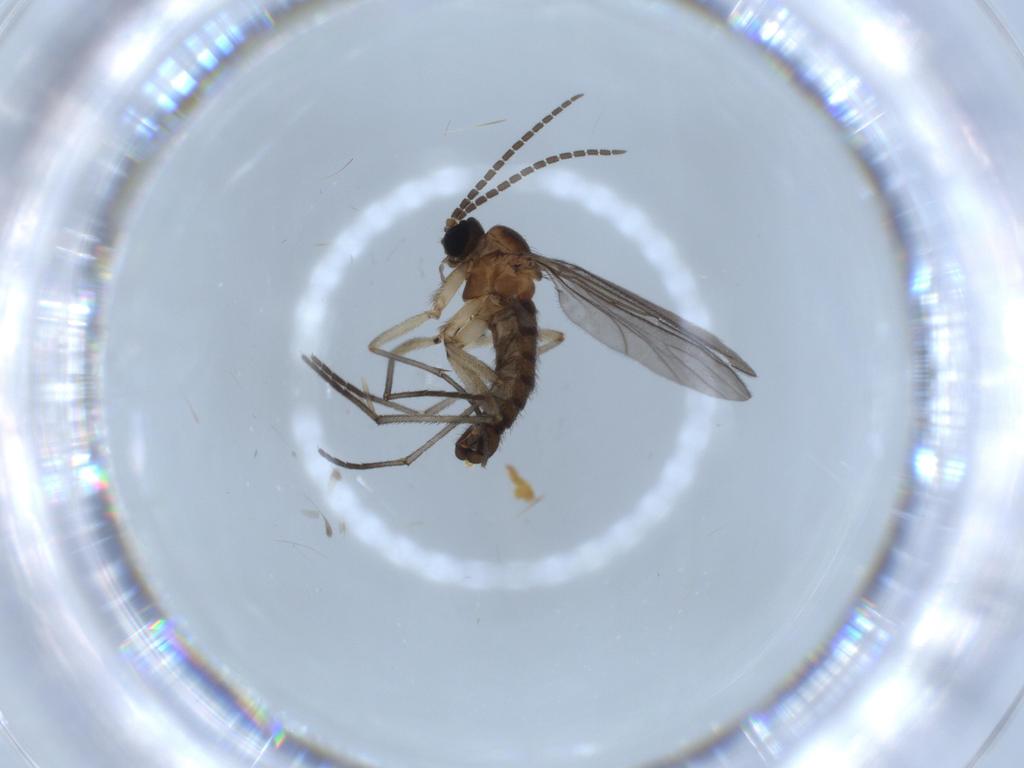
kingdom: Animalia
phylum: Arthropoda
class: Insecta
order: Diptera
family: Sciaridae
